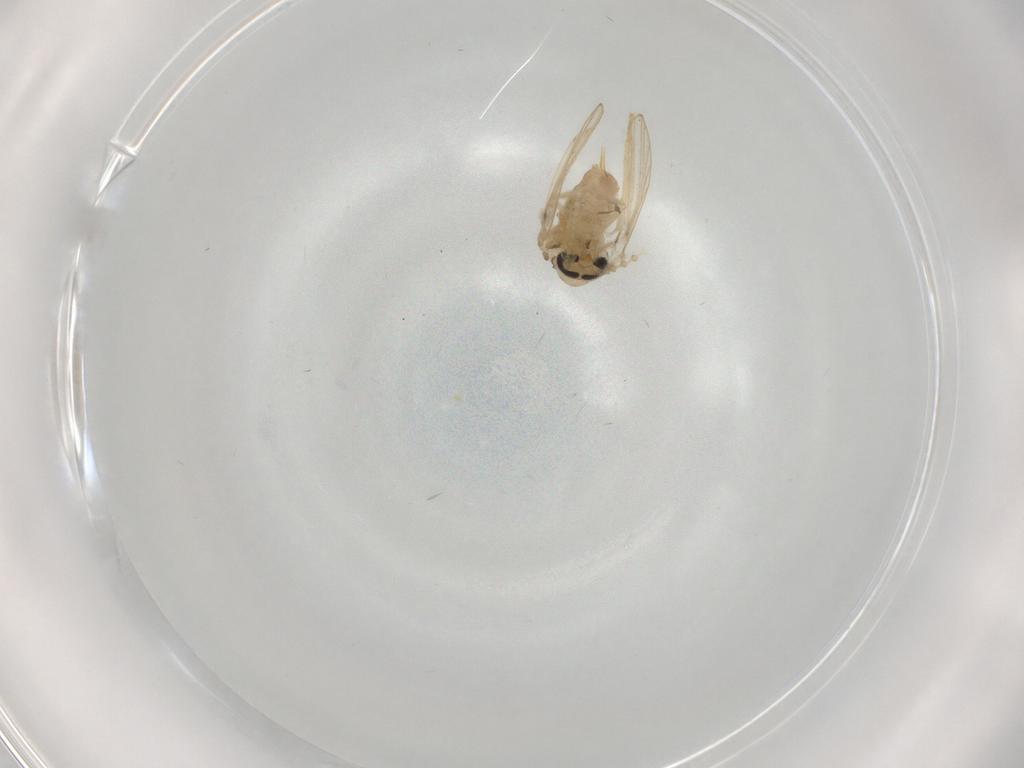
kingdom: Animalia
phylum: Arthropoda
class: Insecta
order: Diptera
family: Psychodidae
